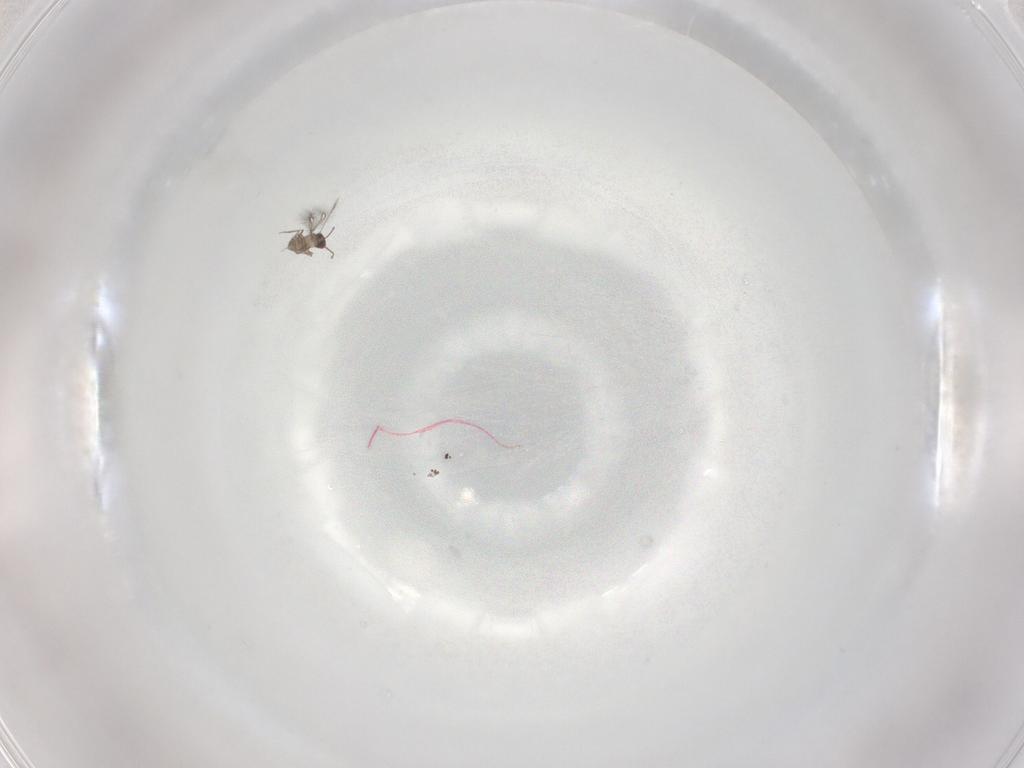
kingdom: Animalia
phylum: Arthropoda
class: Insecta
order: Hymenoptera
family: Mymaridae
